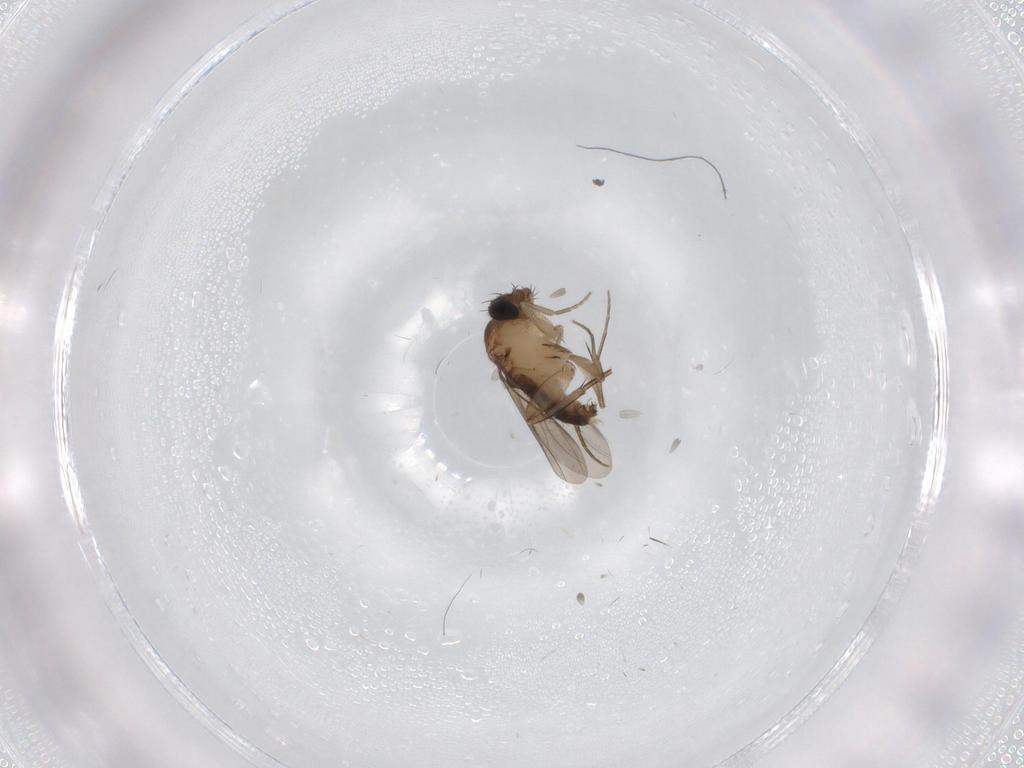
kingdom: Animalia
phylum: Arthropoda
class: Insecta
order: Diptera
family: Phoridae
